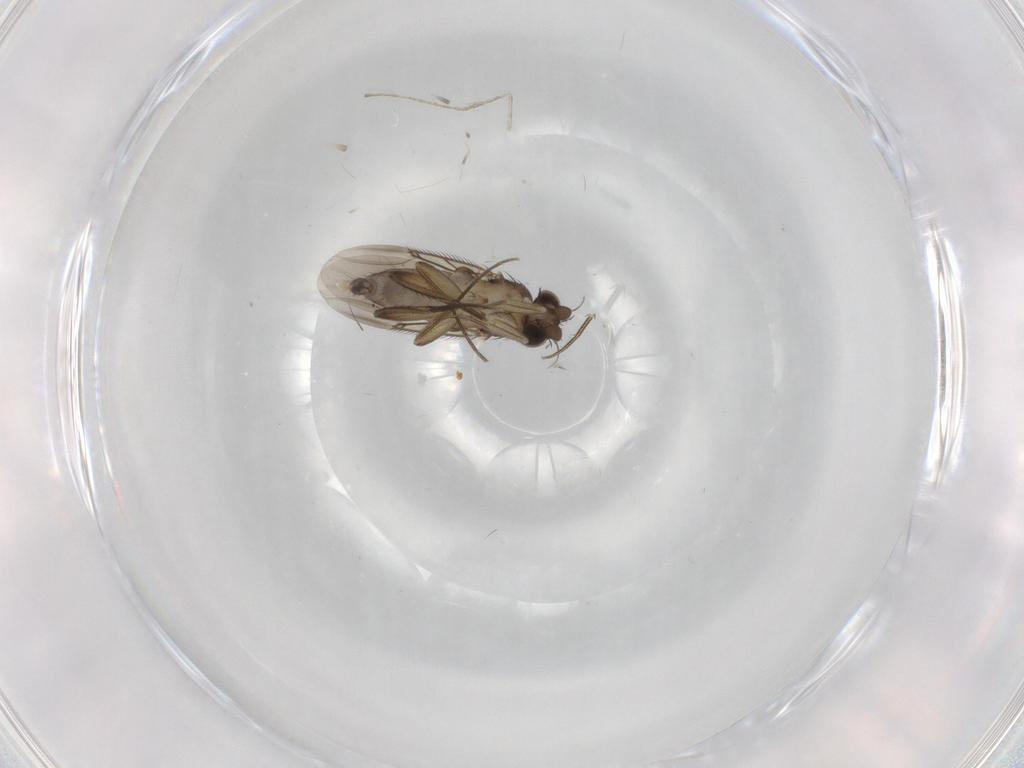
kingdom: Animalia
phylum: Arthropoda
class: Insecta
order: Diptera
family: Phoridae
